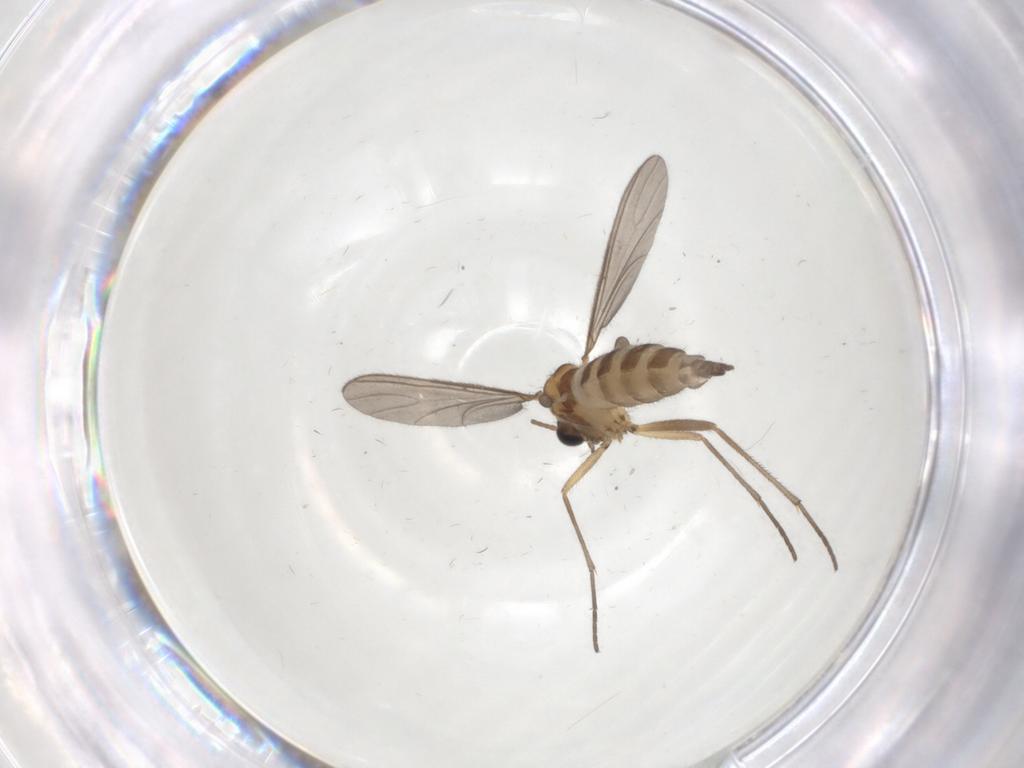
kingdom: Animalia
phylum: Arthropoda
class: Insecta
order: Diptera
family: Sciaridae
